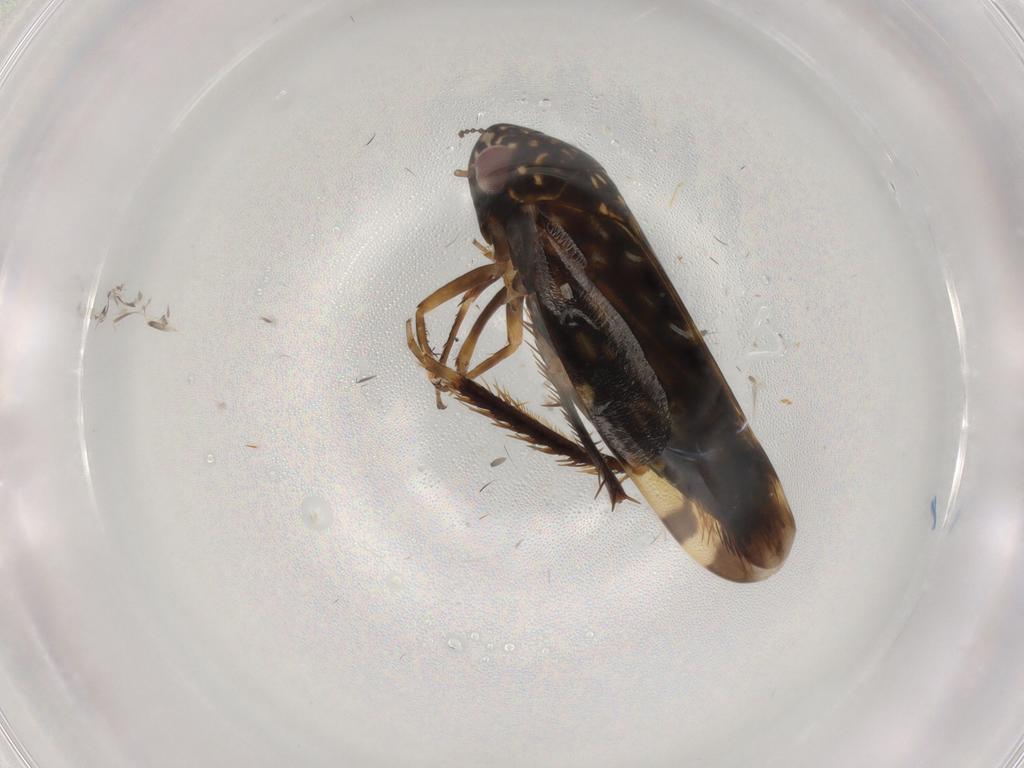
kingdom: Animalia
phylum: Arthropoda
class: Insecta
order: Hemiptera
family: Cicadellidae
